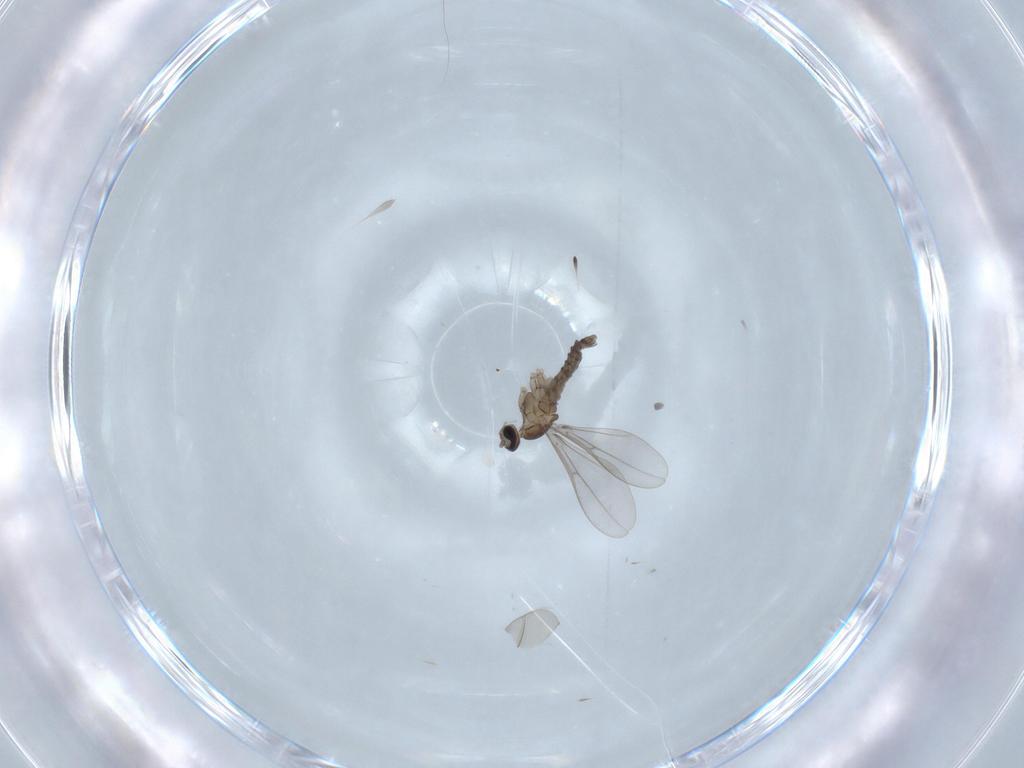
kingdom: Animalia
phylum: Arthropoda
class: Insecta
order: Diptera
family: Cecidomyiidae
